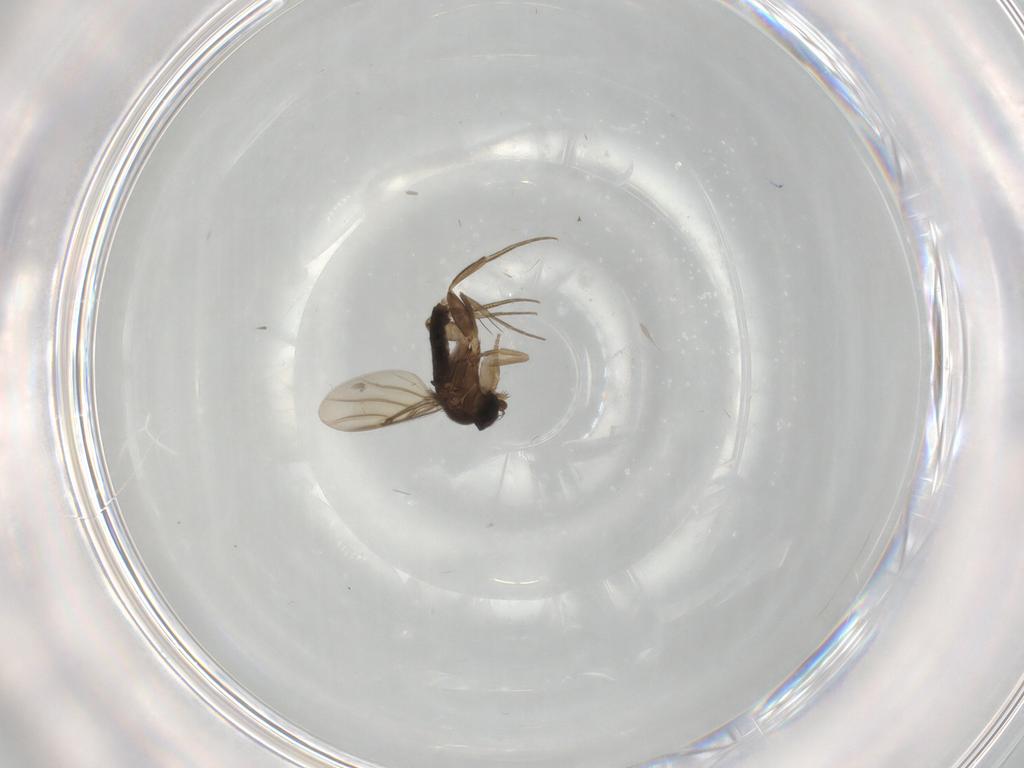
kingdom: Animalia
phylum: Arthropoda
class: Insecta
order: Diptera
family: Phoridae
